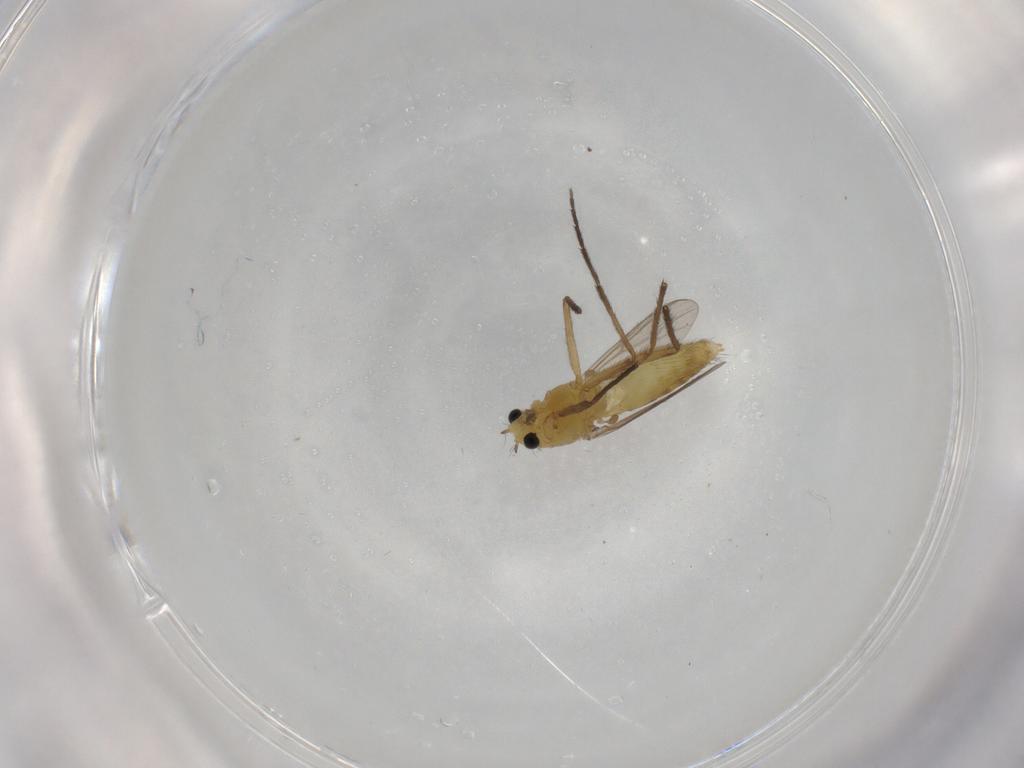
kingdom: Animalia
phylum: Arthropoda
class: Insecta
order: Diptera
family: Chironomidae
